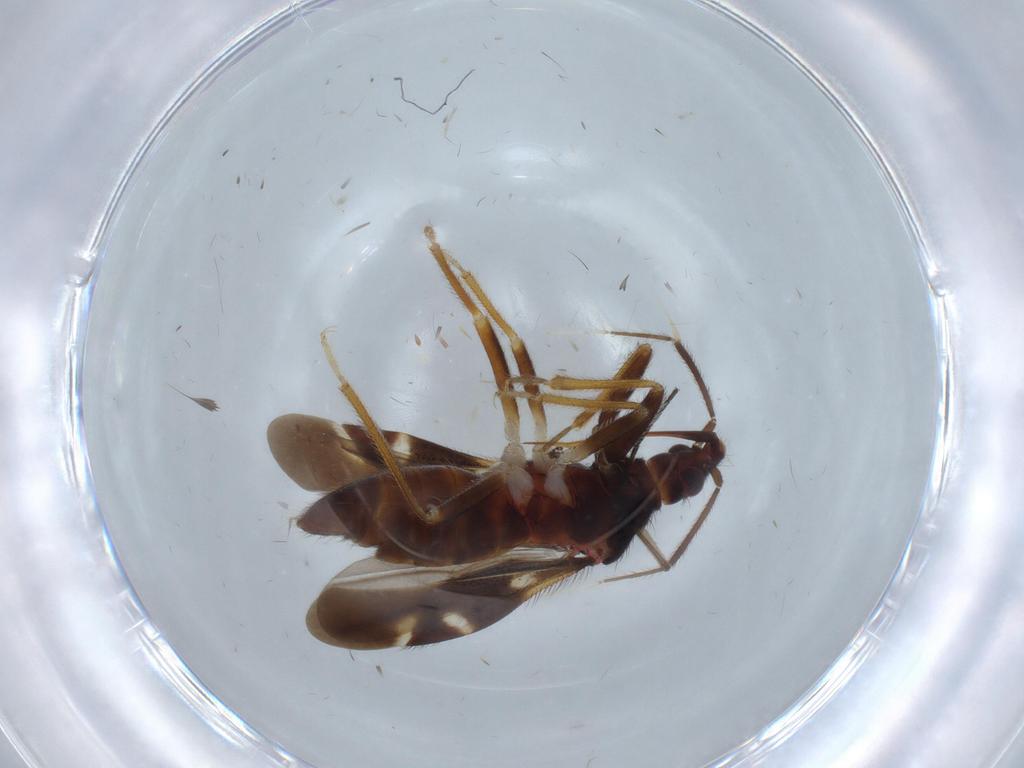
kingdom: Animalia
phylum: Arthropoda
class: Insecta
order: Hemiptera
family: Anthocoridae
